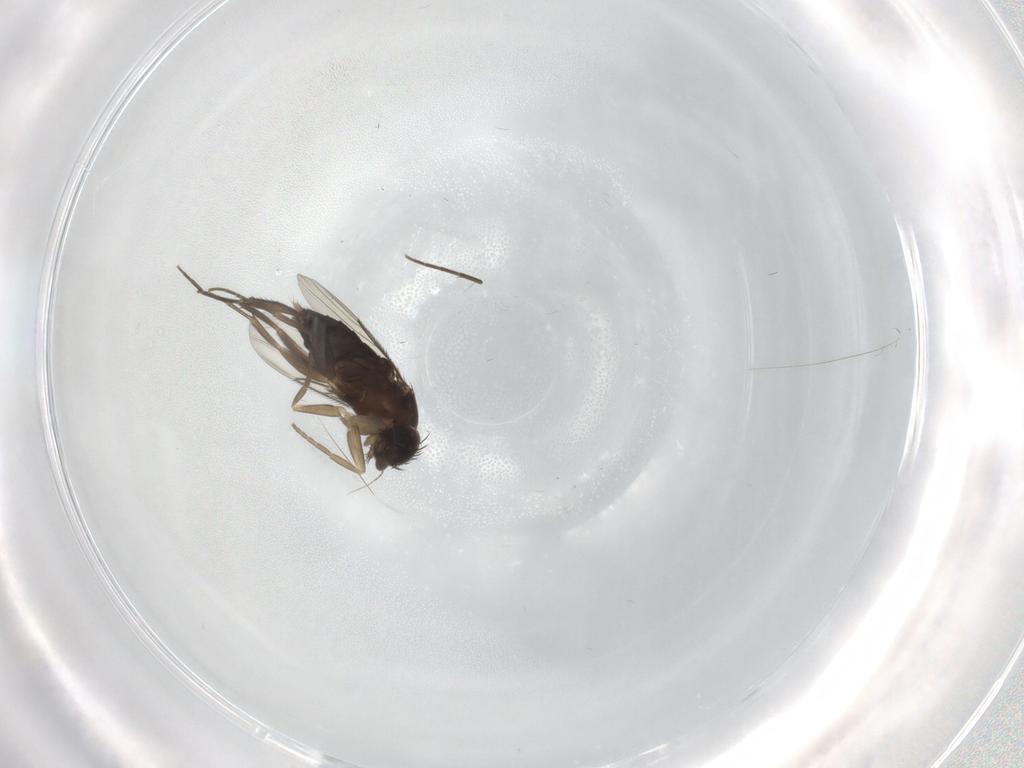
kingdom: Animalia
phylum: Arthropoda
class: Insecta
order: Diptera
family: Phoridae
